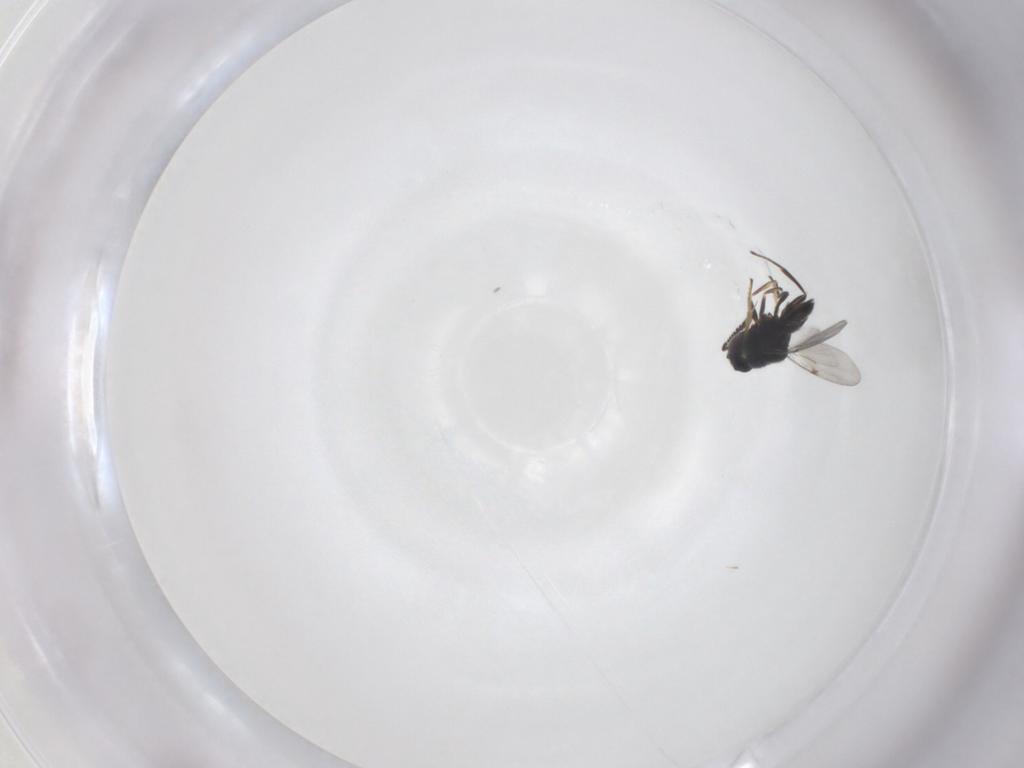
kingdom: Animalia
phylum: Arthropoda
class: Insecta
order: Hymenoptera
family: Encyrtidae
